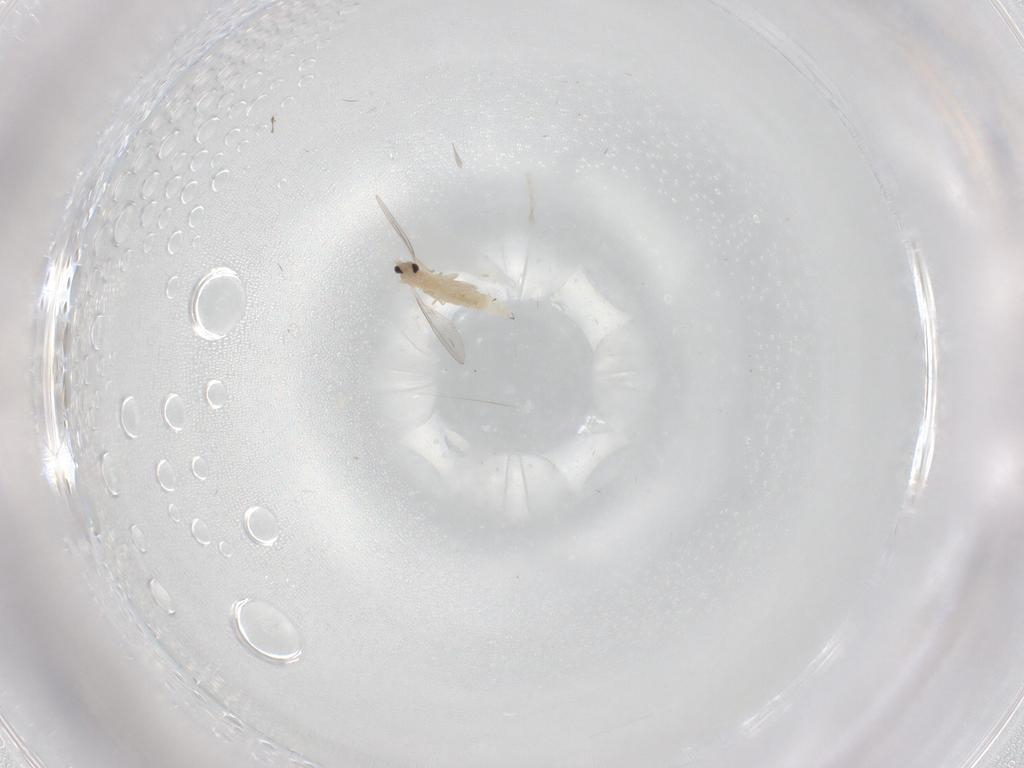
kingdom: Animalia
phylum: Arthropoda
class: Insecta
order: Diptera
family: Cecidomyiidae
